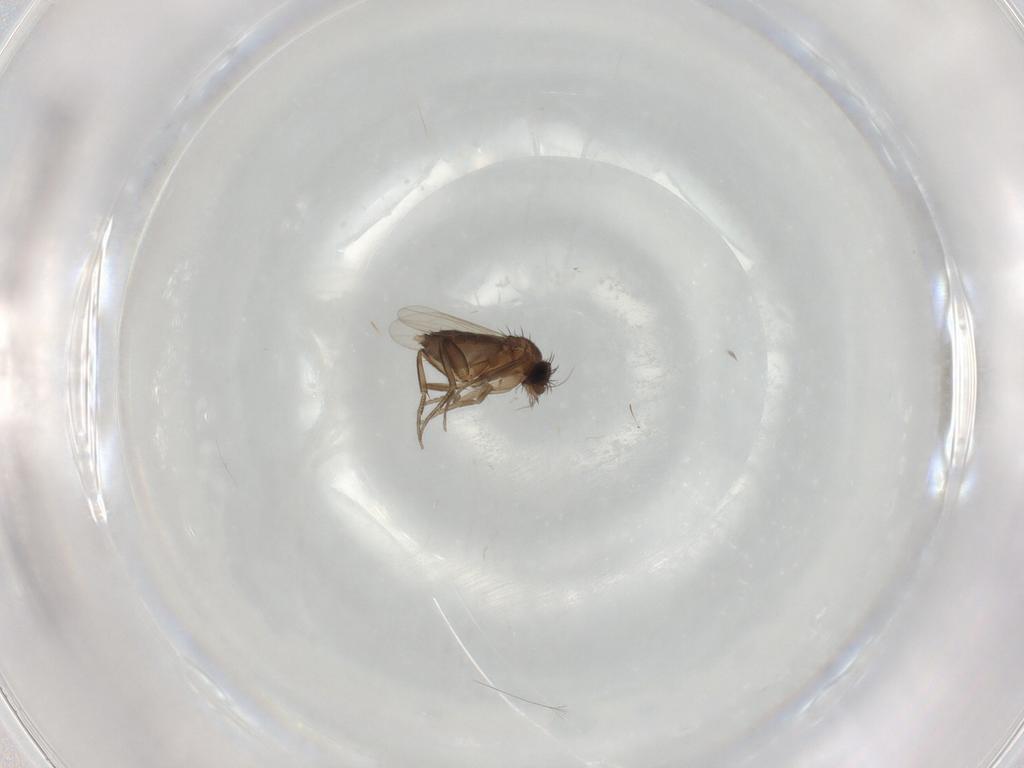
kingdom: Animalia
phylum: Arthropoda
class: Insecta
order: Diptera
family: Phoridae
